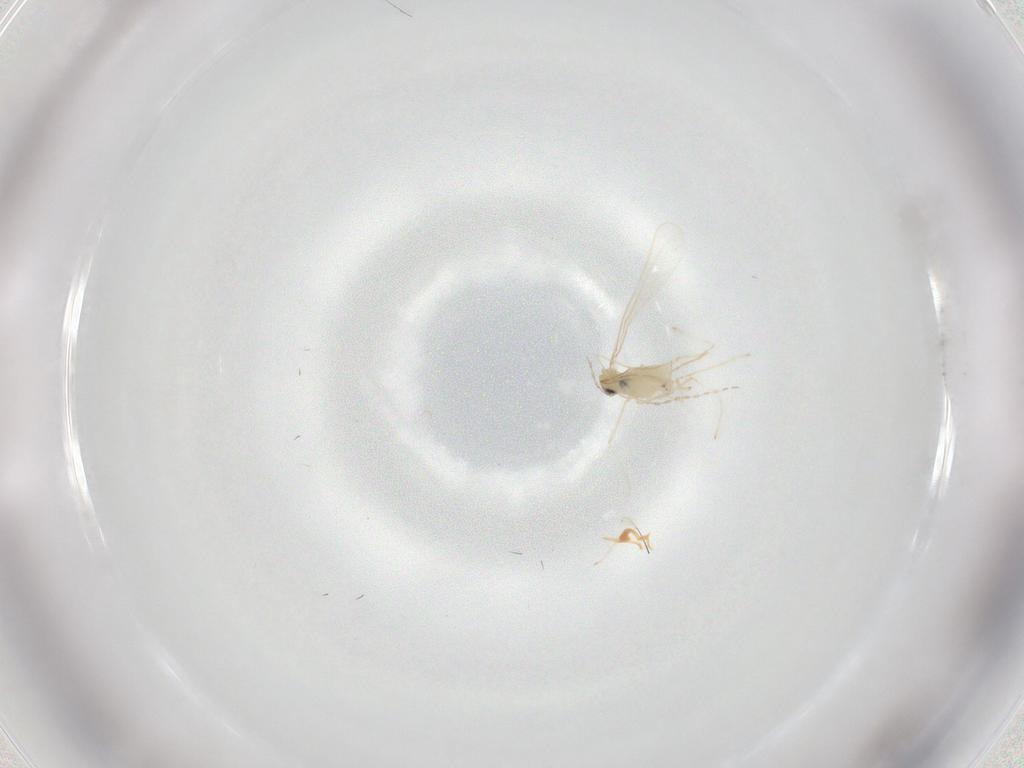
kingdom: Animalia
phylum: Arthropoda
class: Insecta
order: Diptera
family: Cecidomyiidae
